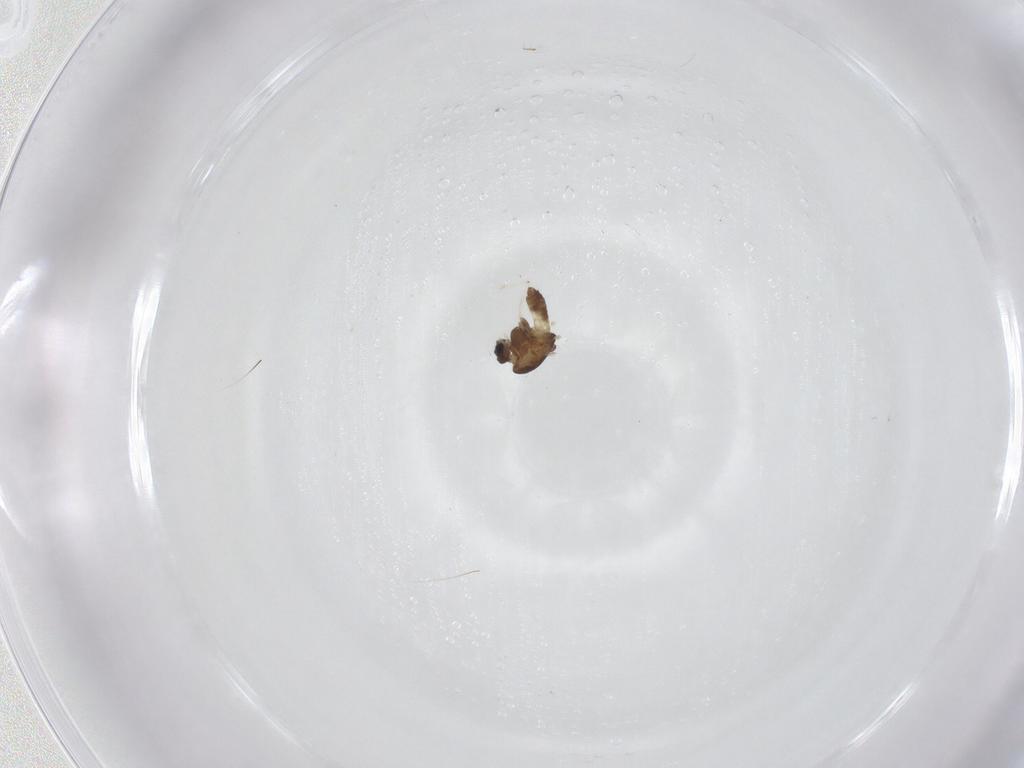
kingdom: Animalia
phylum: Arthropoda
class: Insecta
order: Diptera
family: Chironomidae
